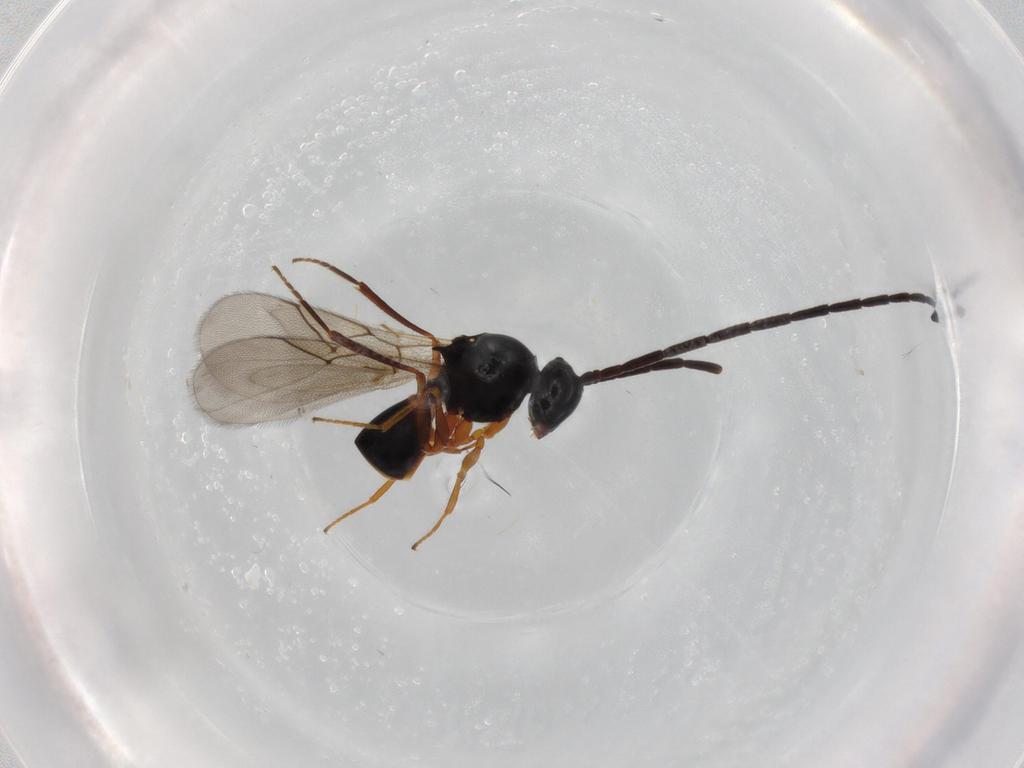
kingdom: Animalia
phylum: Arthropoda
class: Insecta
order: Hymenoptera
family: Figitidae
